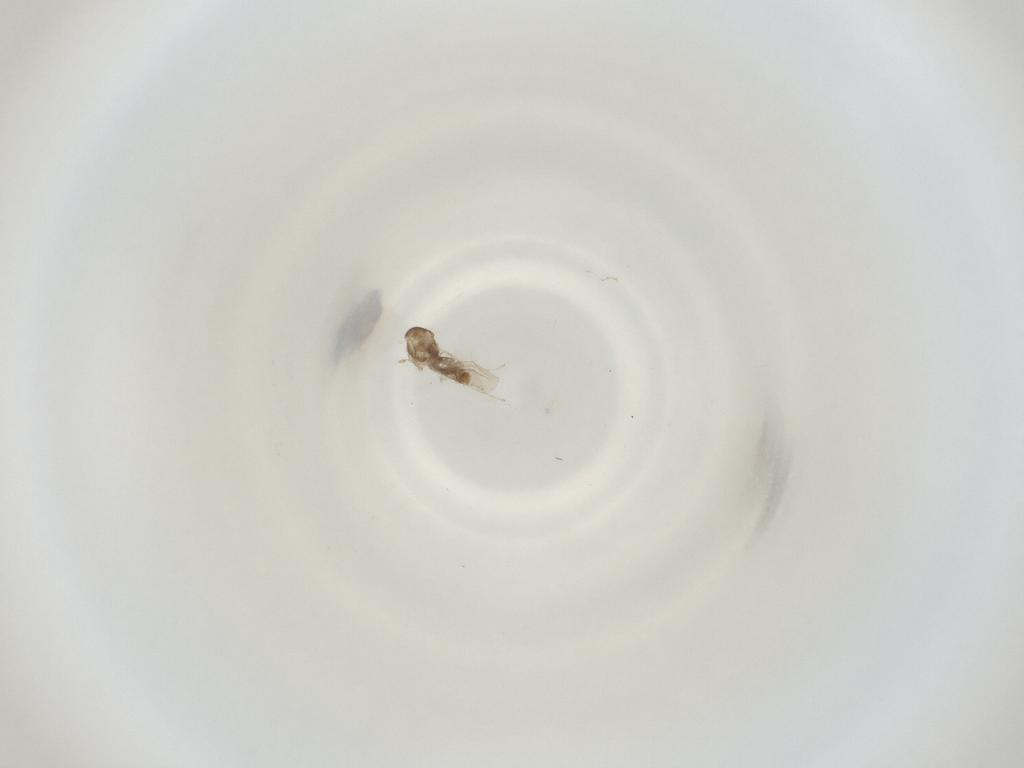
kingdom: Animalia
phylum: Arthropoda
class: Insecta
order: Diptera
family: Cecidomyiidae
